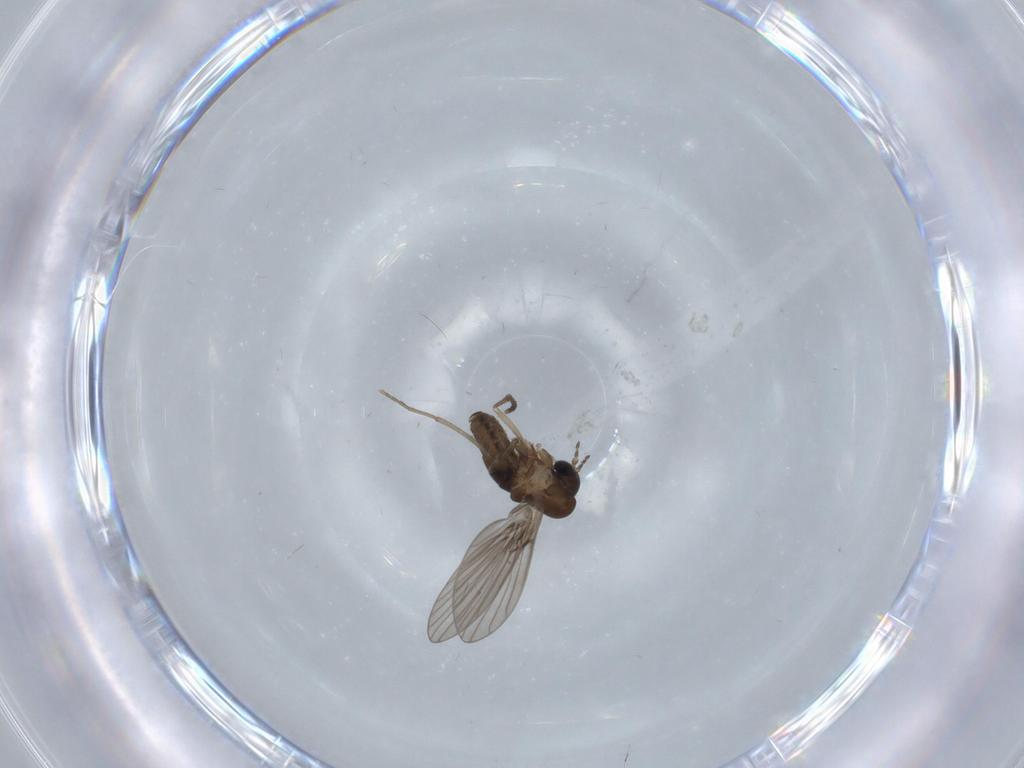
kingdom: Animalia
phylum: Arthropoda
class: Insecta
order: Diptera
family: Psychodidae
